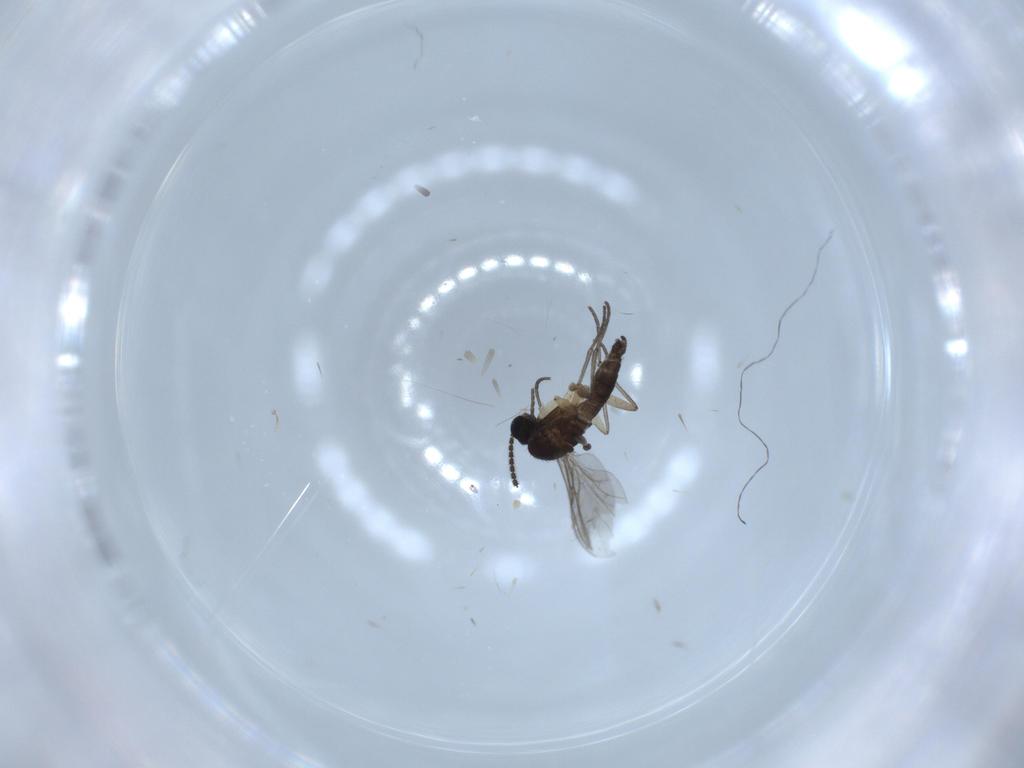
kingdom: Animalia
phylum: Arthropoda
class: Insecta
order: Diptera
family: Sciaridae
